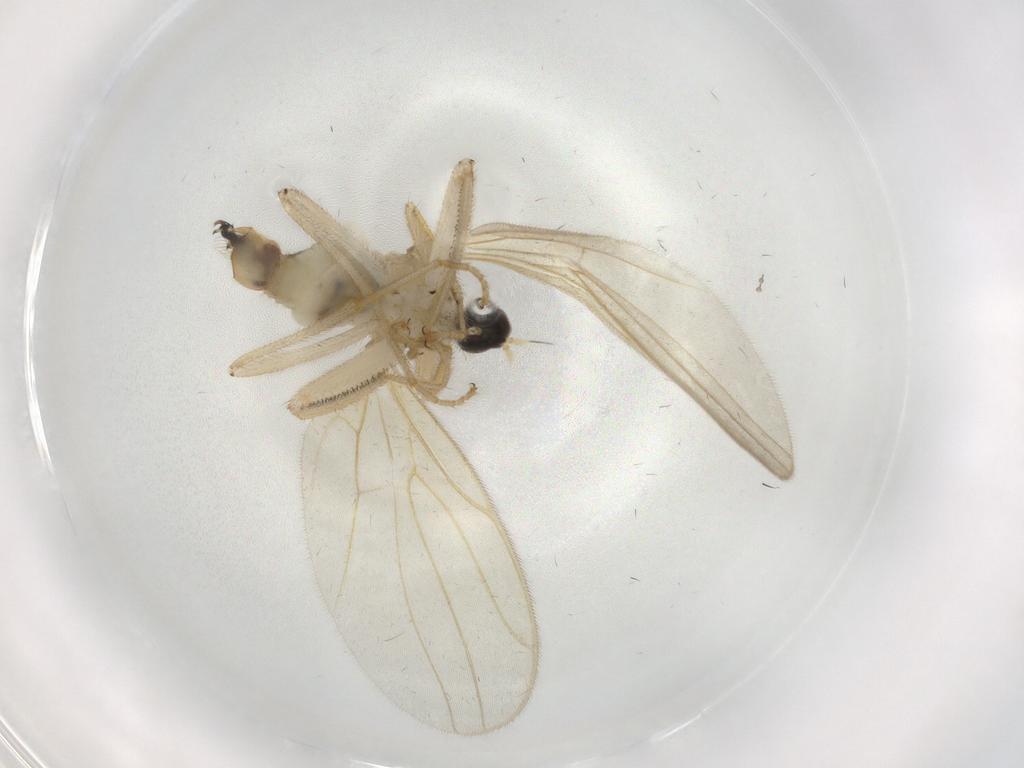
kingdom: Animalia
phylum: Arthropoda
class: Insecta
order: Diptera
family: Hybotidae
